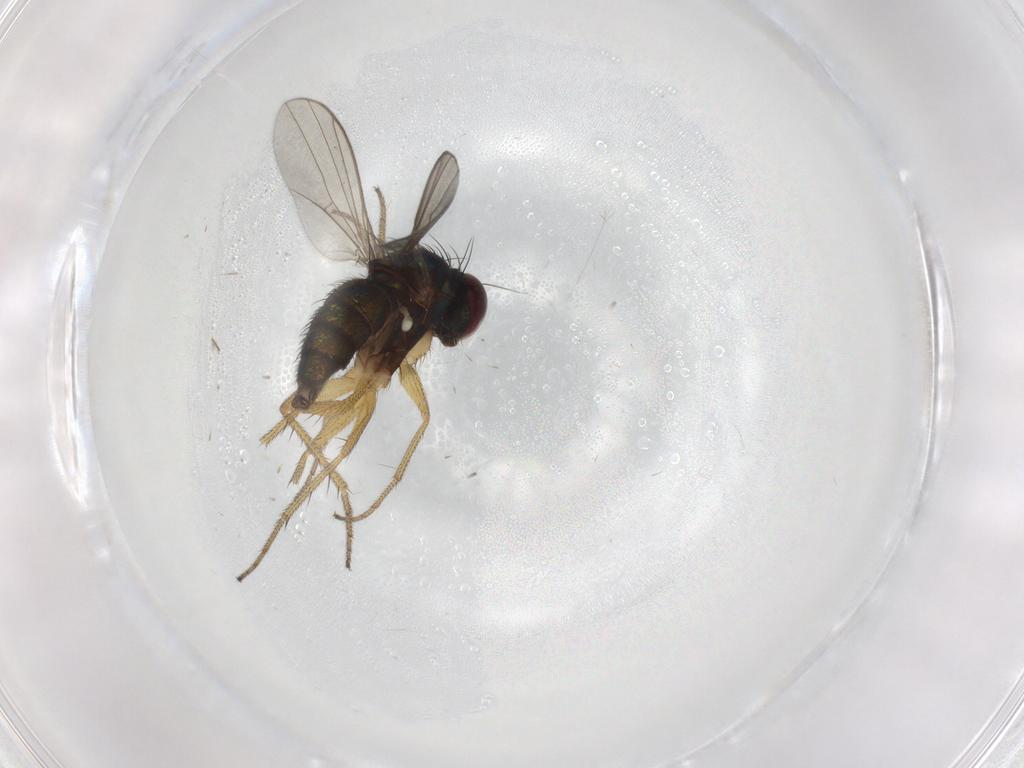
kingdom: Animalia
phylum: Arthropoda
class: Insecta
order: Diptera
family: Dolichopodidae
